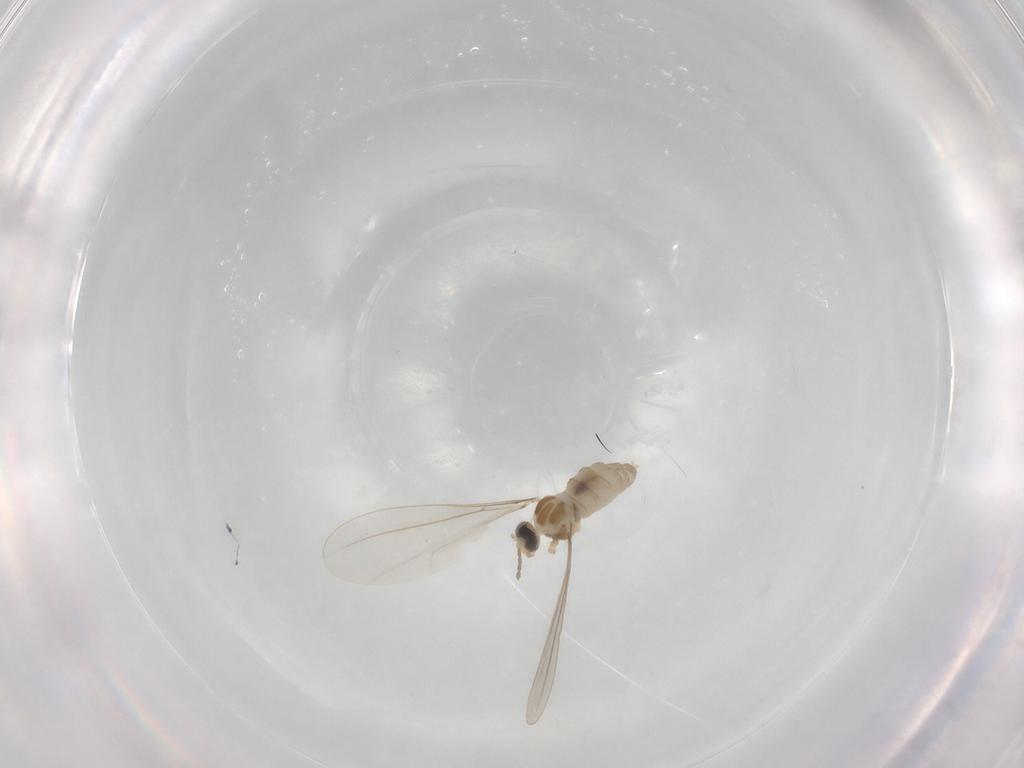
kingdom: Animalia
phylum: Arthropoda
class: Insecta
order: Diptera
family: Cecidomyiidae
